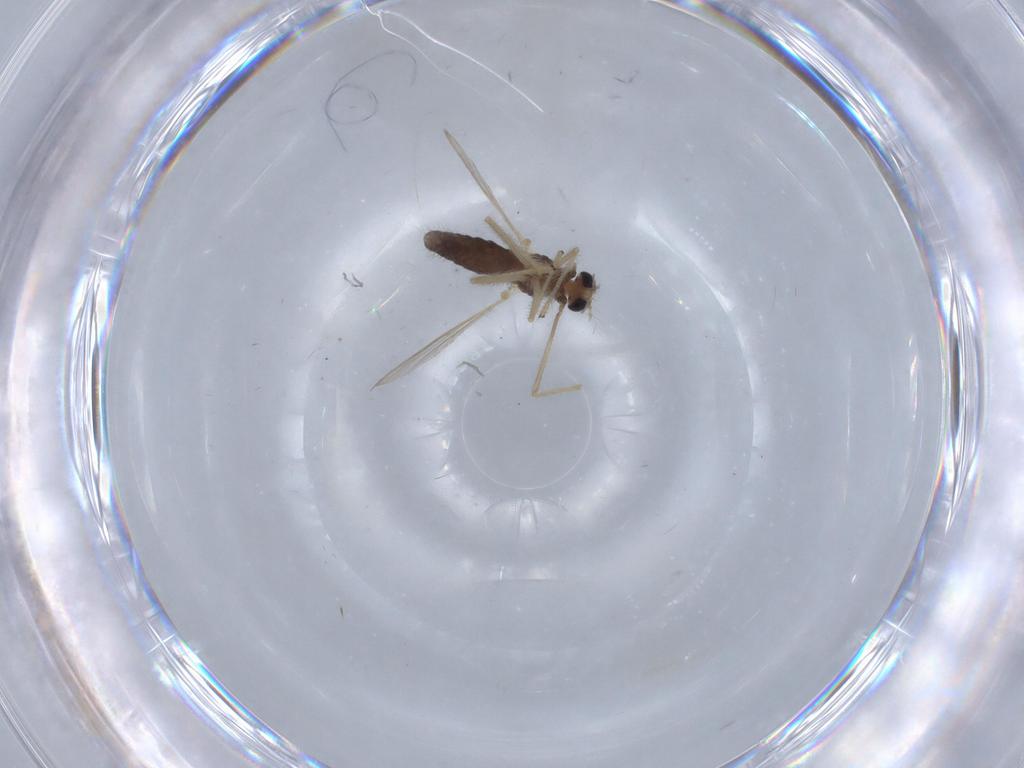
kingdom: Animalia
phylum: Arthropoda
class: Insecta
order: Diptera
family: Chironomidae
